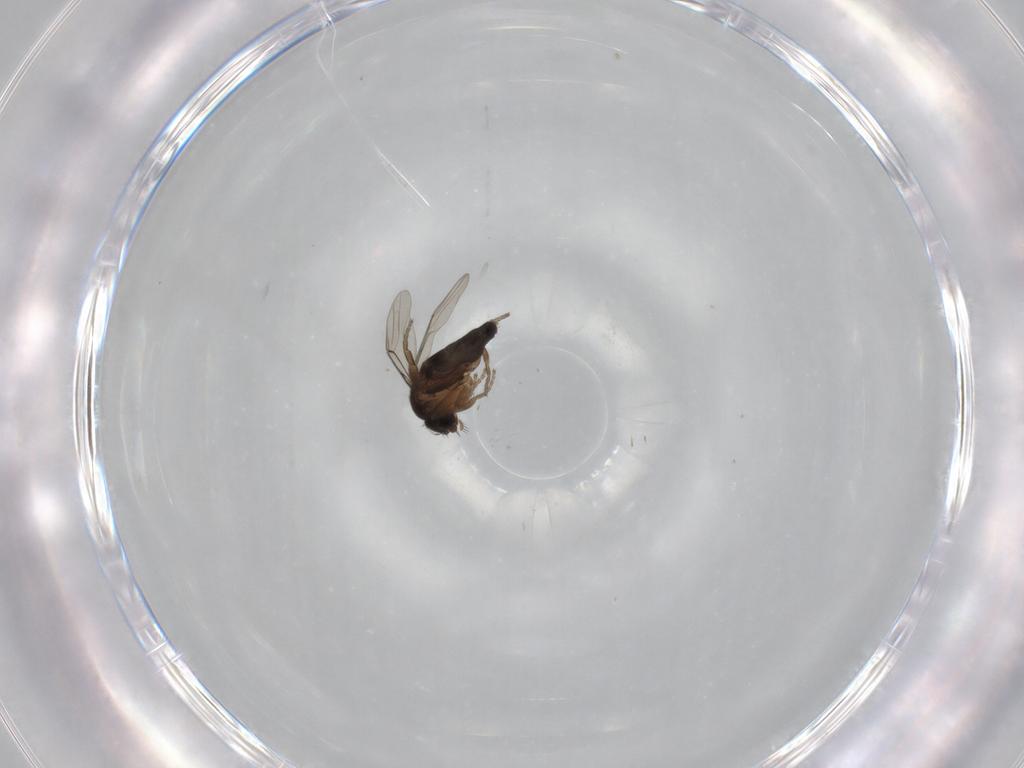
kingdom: Animalia
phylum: Arthropoda
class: Insecta
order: Diptera
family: Phoridae
